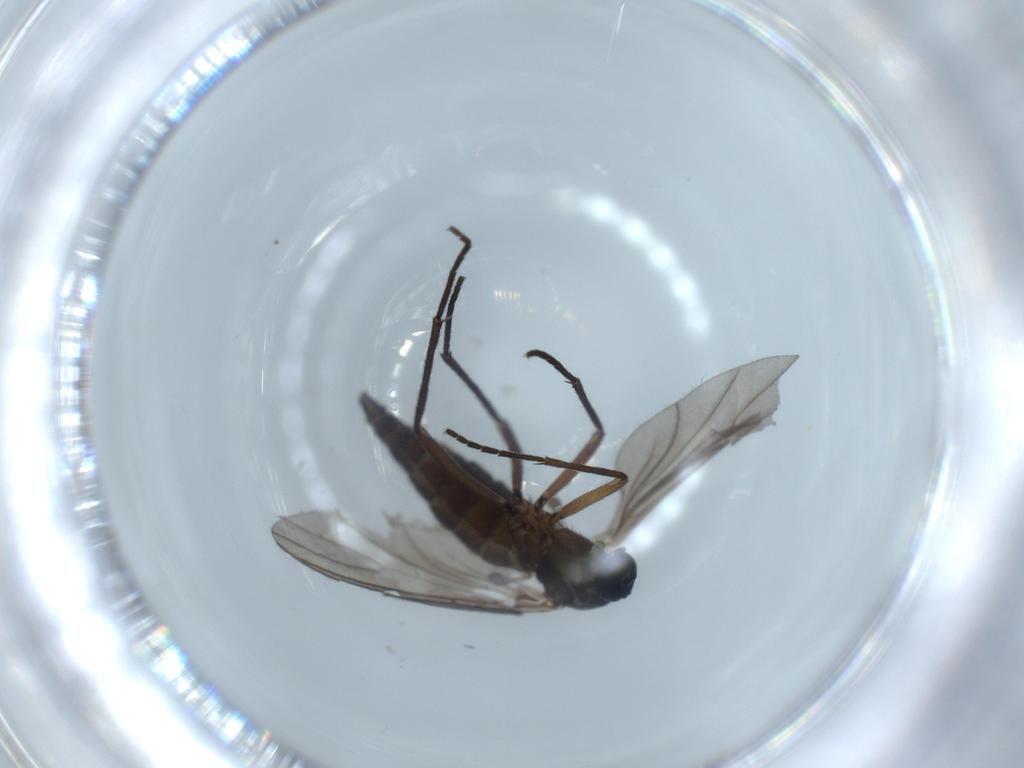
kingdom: Animalia
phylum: Arthropoda
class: Insecta
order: Diptera
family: Sciaridae
